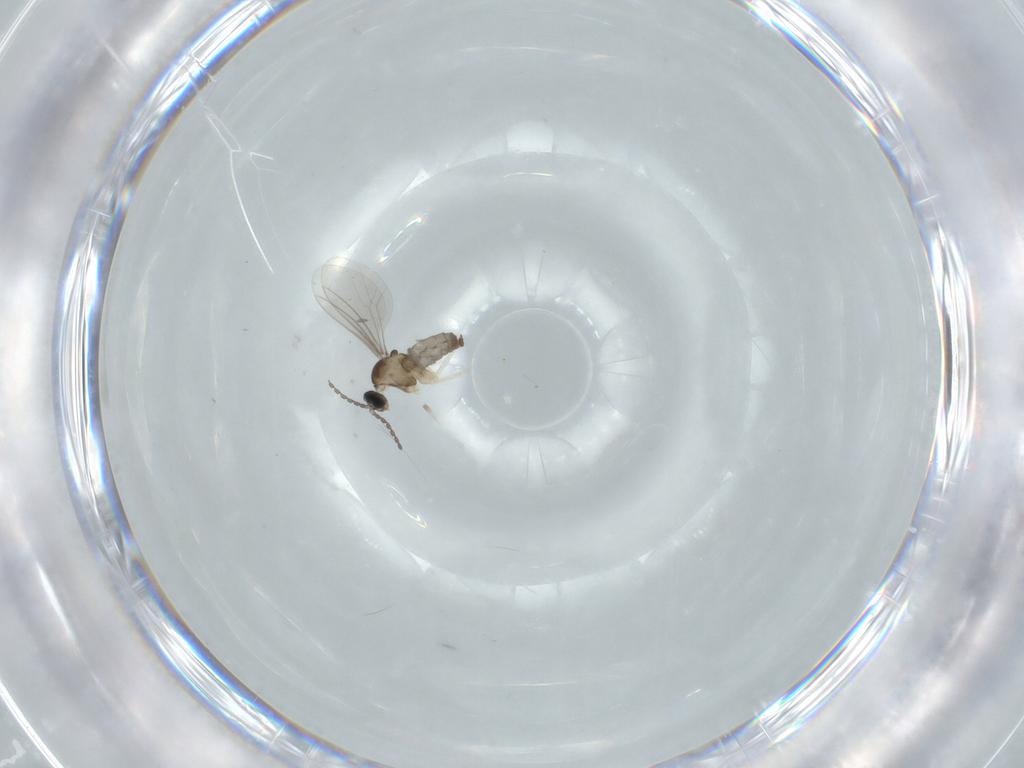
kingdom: Animalia
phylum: Arthropoda
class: Insecta
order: Diptera
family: Cecidomyiidae
